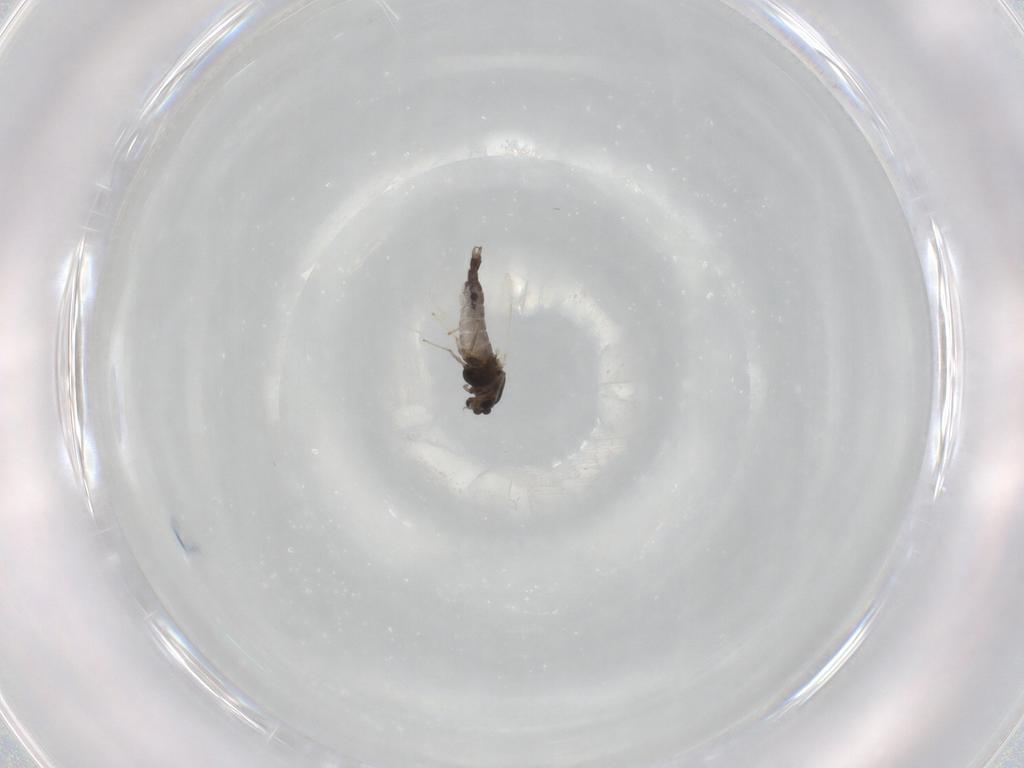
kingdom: Animalia
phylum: Arthropoda
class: Insecta
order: Diptera
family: Chironomidae
